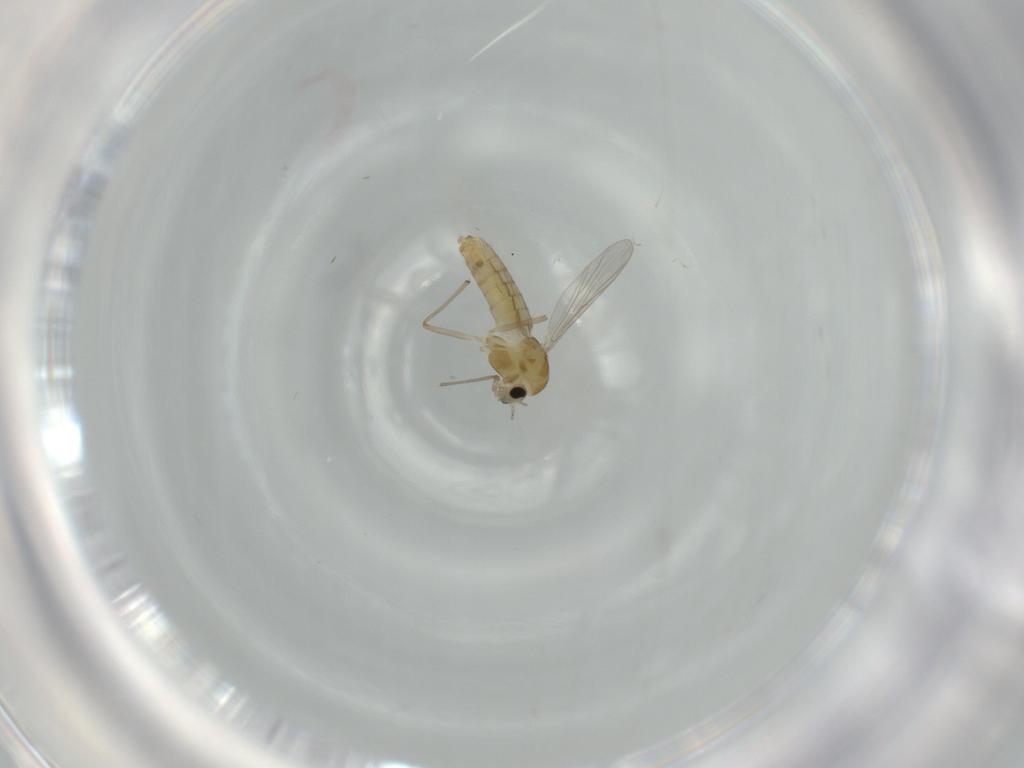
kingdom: Animalia
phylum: Arthropoda
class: Insecta
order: Diptera
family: Chironomidae
